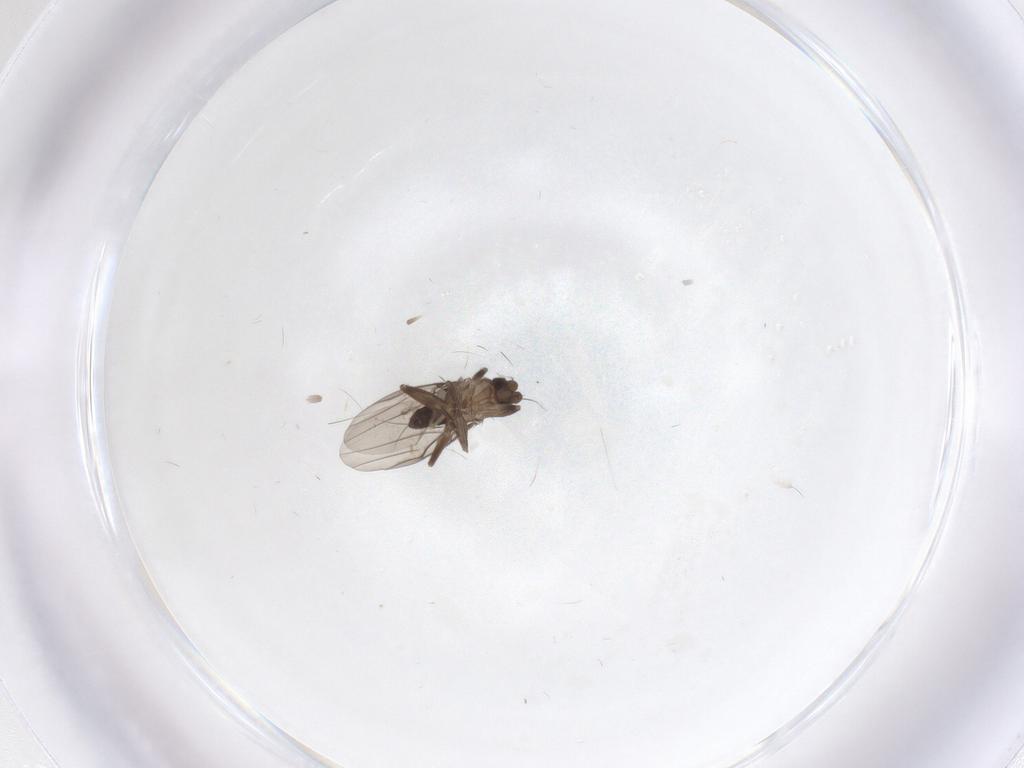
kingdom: Animalia
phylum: Arthropoda
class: Insecta
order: Diptera
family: Phoridae
